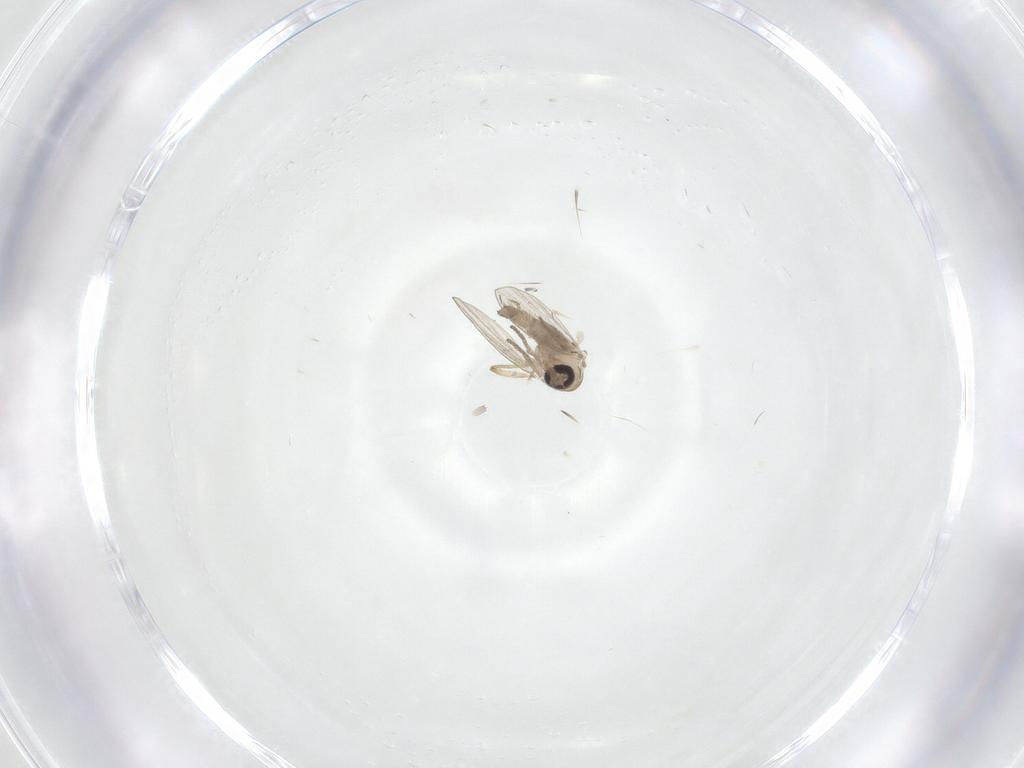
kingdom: Animalia
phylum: Arthropoda
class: Insecta
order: Diptera
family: Psychodidae
